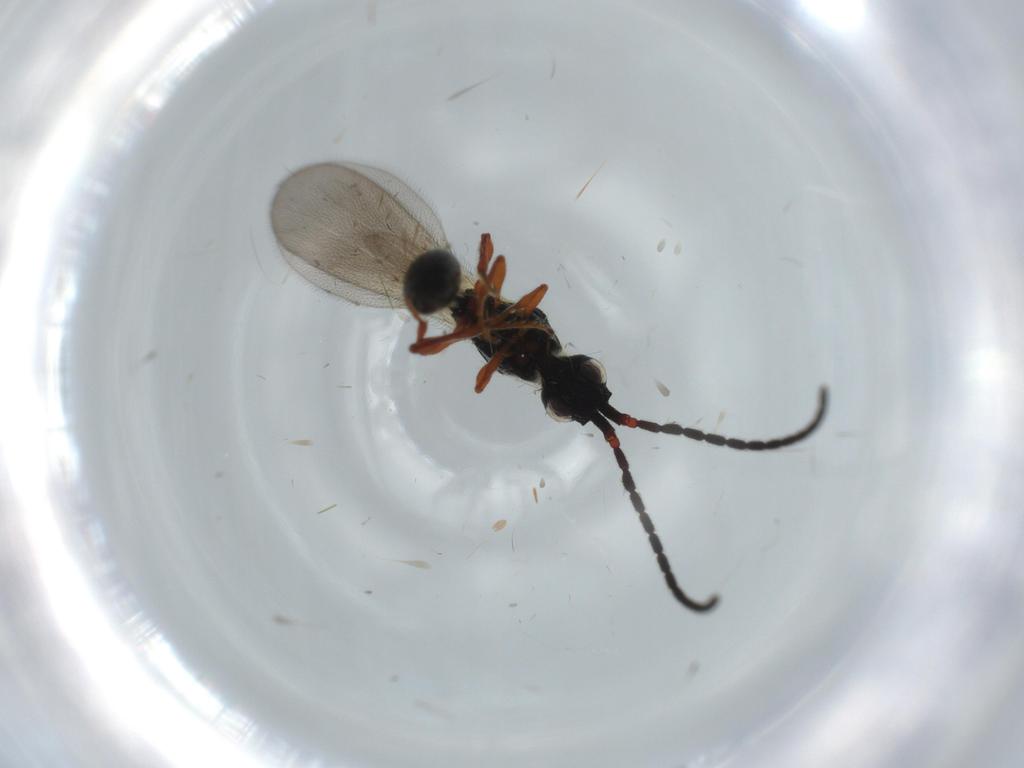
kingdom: Animalia
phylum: Arthropoda
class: Insecta
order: Hymenoptera
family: Diapriidae
